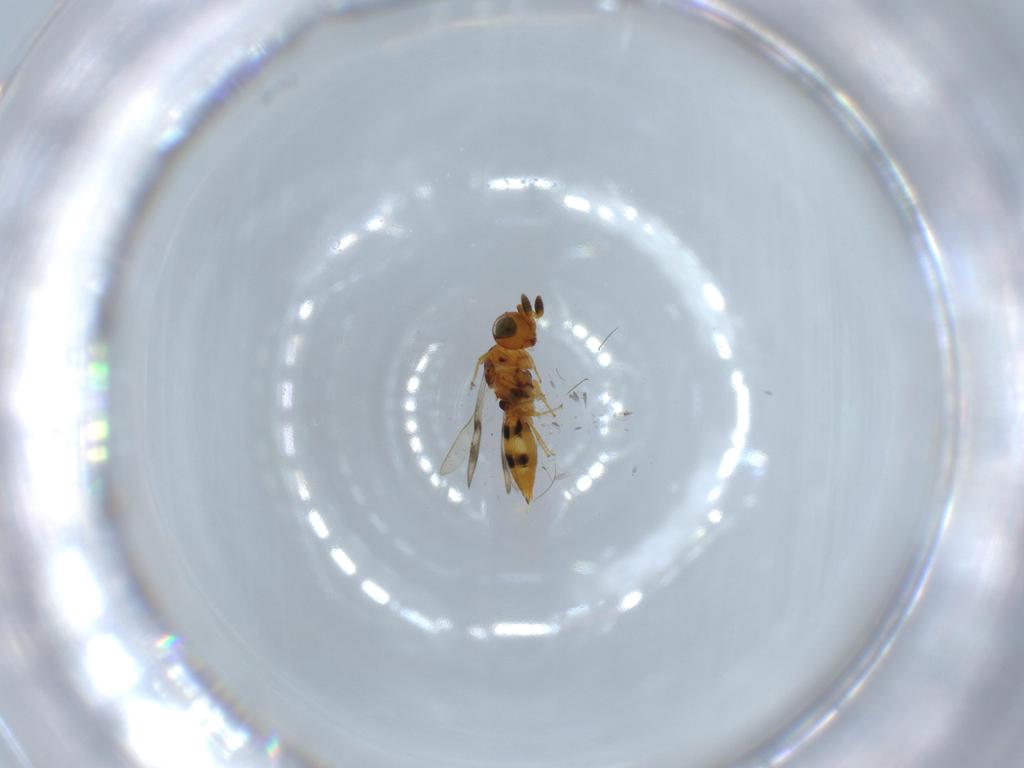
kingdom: Animalia
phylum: Arthropoda
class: Insecta
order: Hymenoptera
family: Scelionidae
